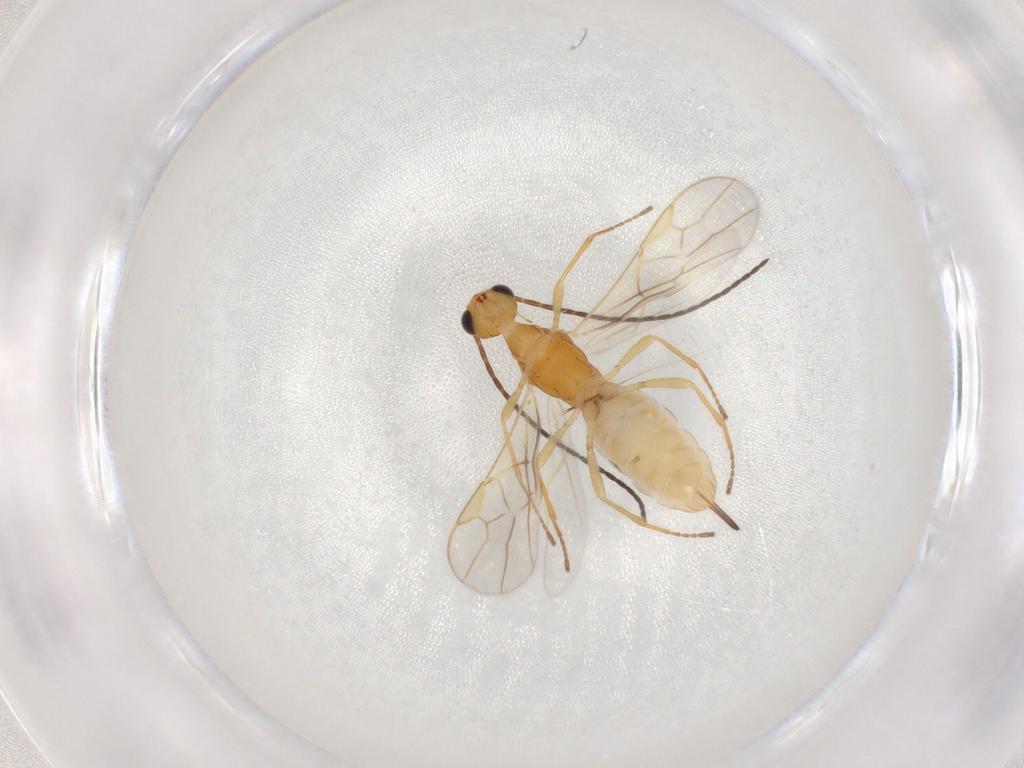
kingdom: Animalia
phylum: Arthropoda
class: Insecta
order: Hymenoptera
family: Braconidae
